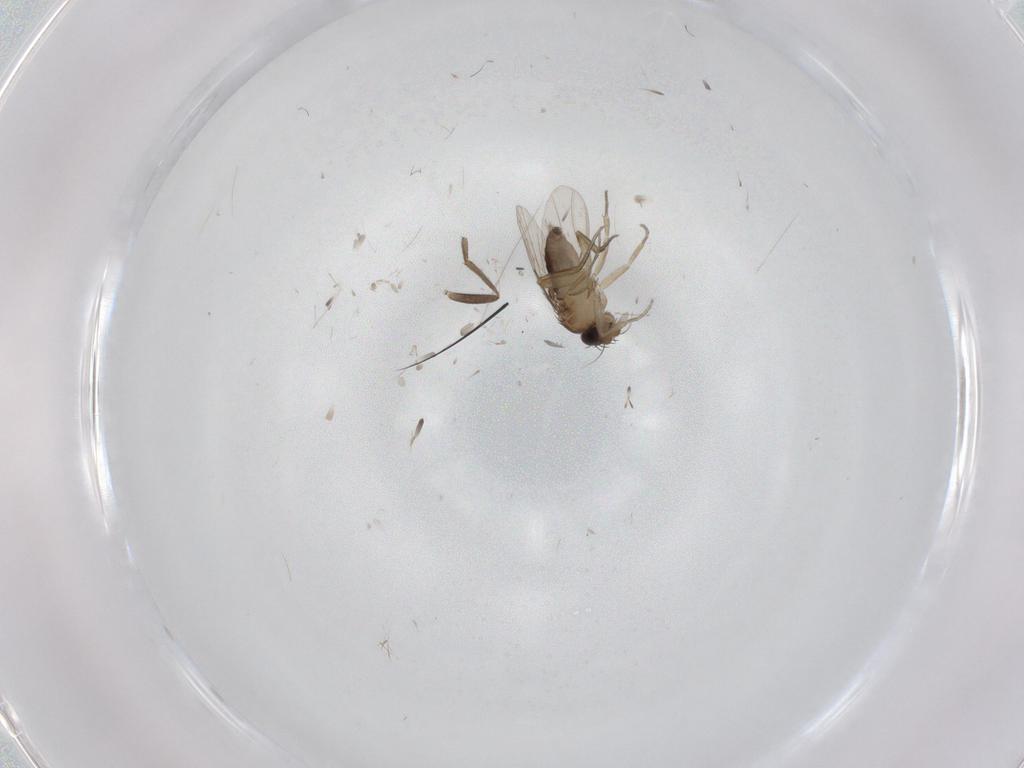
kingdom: Animalia
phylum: Arthropoda
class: Insecta
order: Diptera
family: Phoridae
